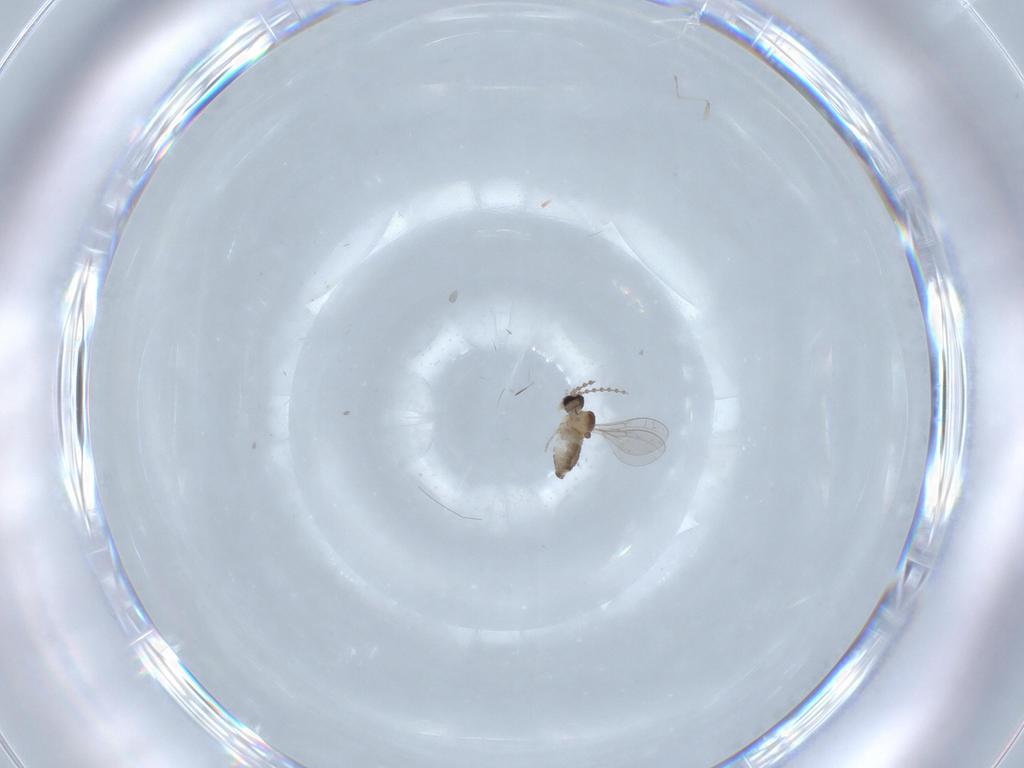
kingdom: Animalia
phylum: Arthropoda
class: Insecta
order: Diptera
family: Cecidomyiidae
